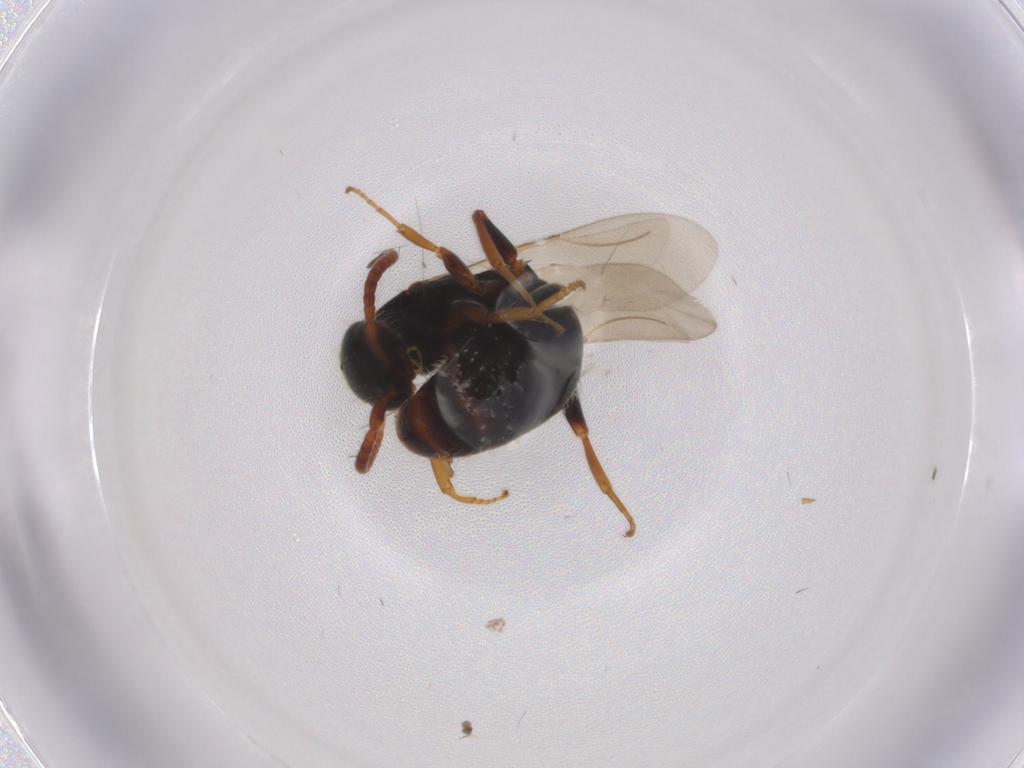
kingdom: Animalia
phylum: Arthropoda
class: Insecta
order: Hymenoptera
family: Bethylidae
